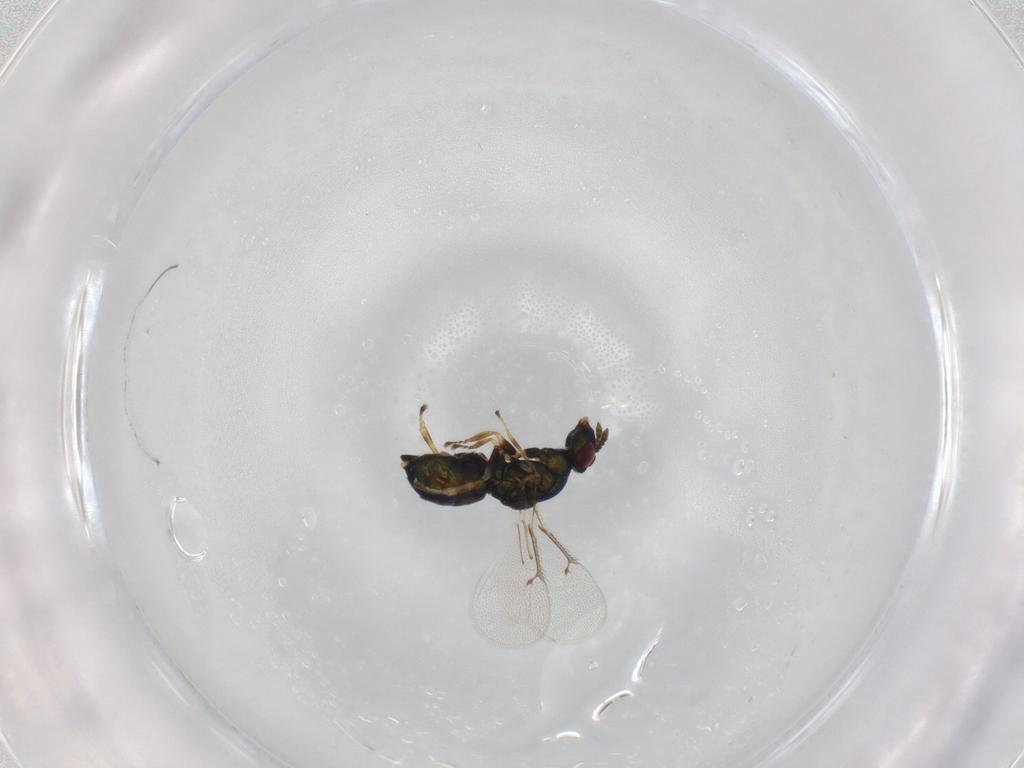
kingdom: Animalia
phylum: Arthropoda
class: Insecta
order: Hymenoptera
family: Eulophidae
